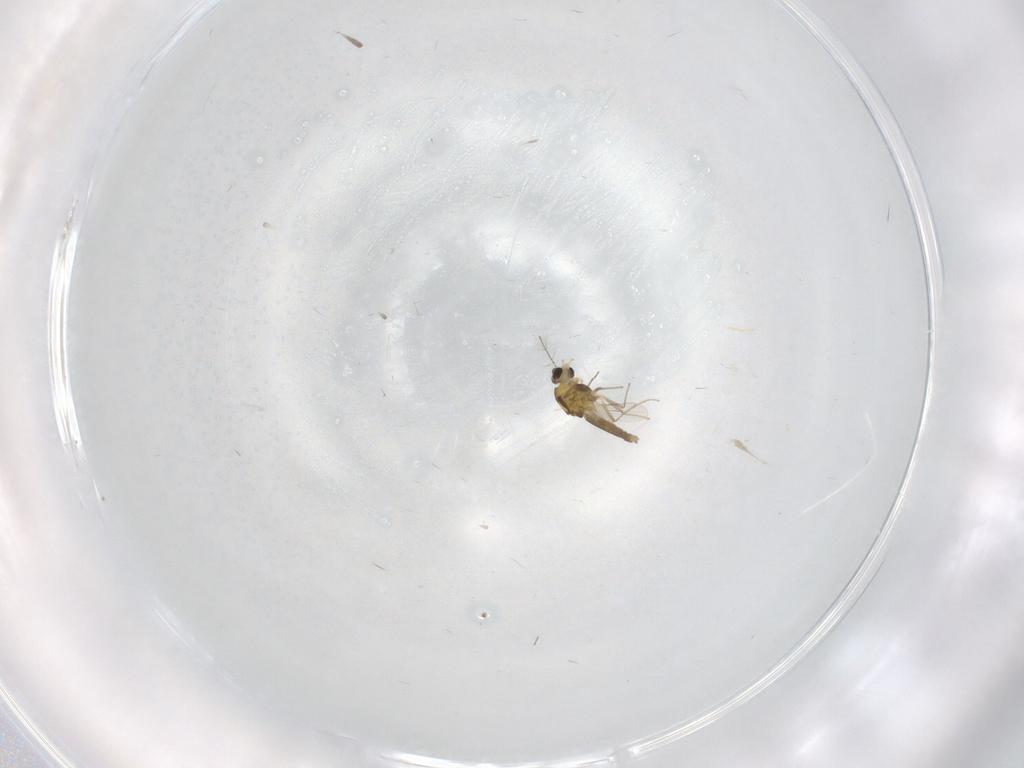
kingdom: Animalia
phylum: Arthropoda
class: Insecta
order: Diptera
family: Chironomidae
